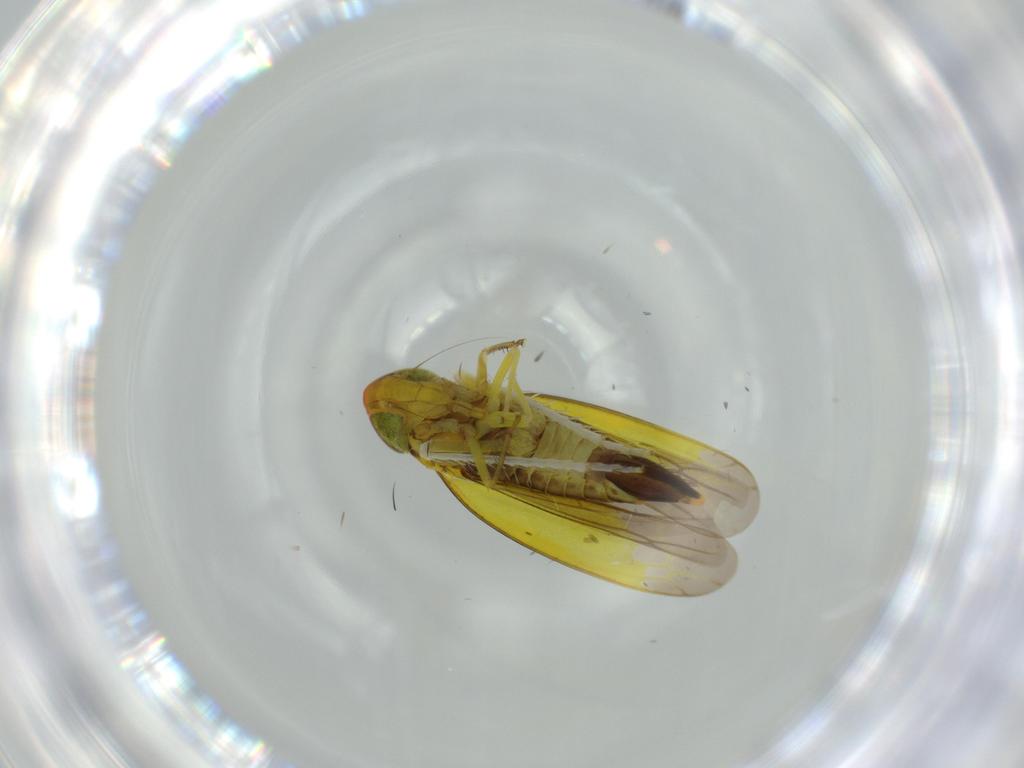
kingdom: Animalia
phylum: Arthropoda
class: Insecta
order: Hemiptera
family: Cicadellidae
